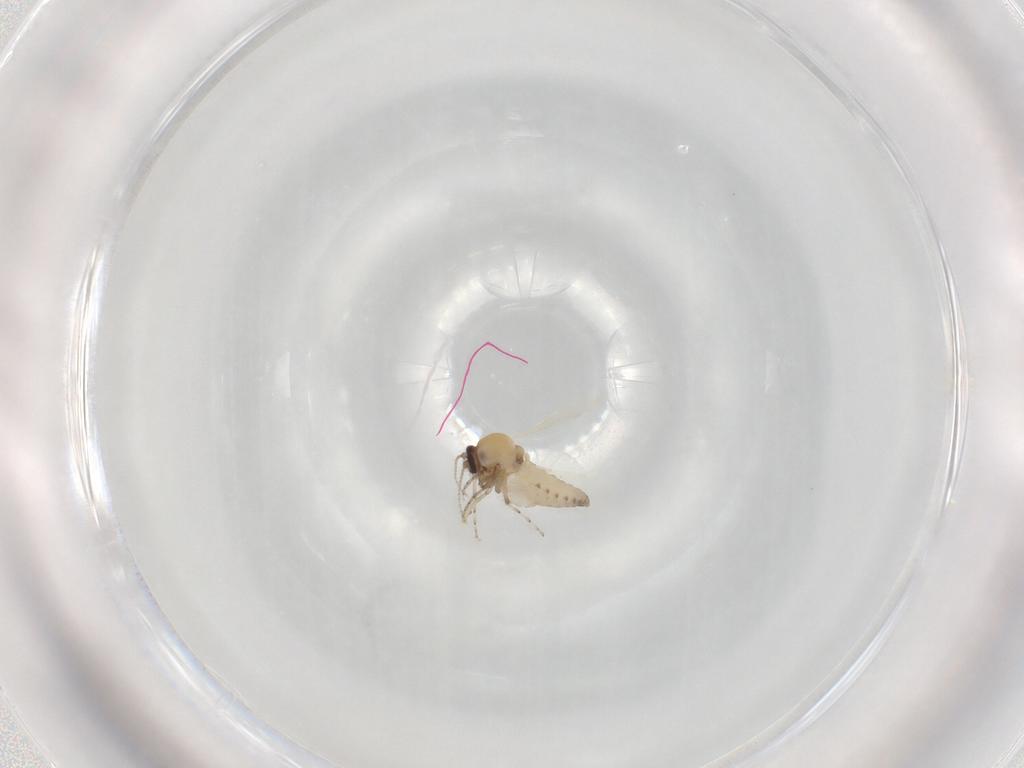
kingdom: Animalia
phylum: Arthropoda
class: Insecta
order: Diptera
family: Ceratopogonidae
